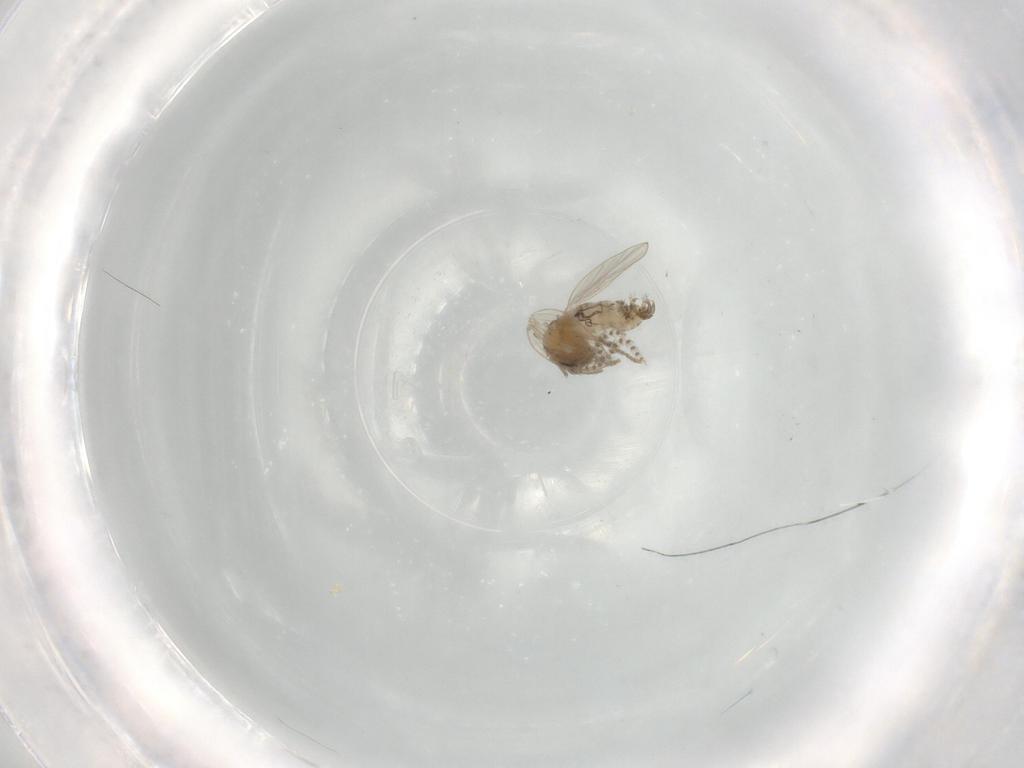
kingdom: Animalia
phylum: Arthropoda
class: Insecta
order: Diptera
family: Psychodidae
